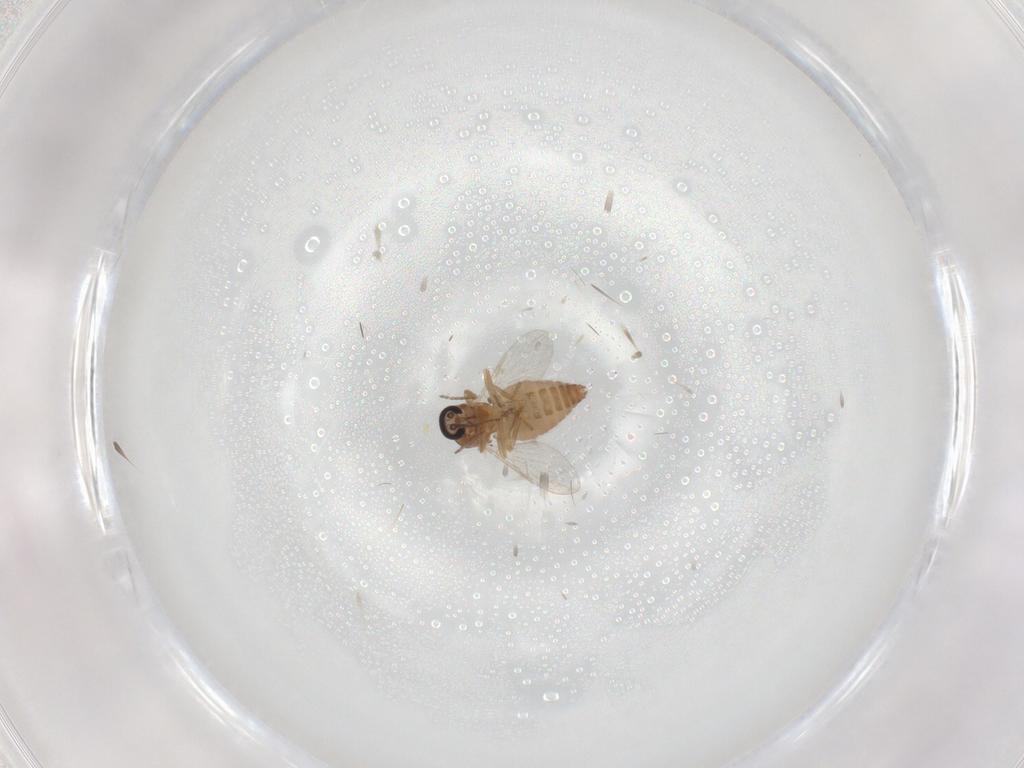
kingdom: Animalia
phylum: Arthropoda
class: Insecta
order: Diptera
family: Ceratopogonidae
